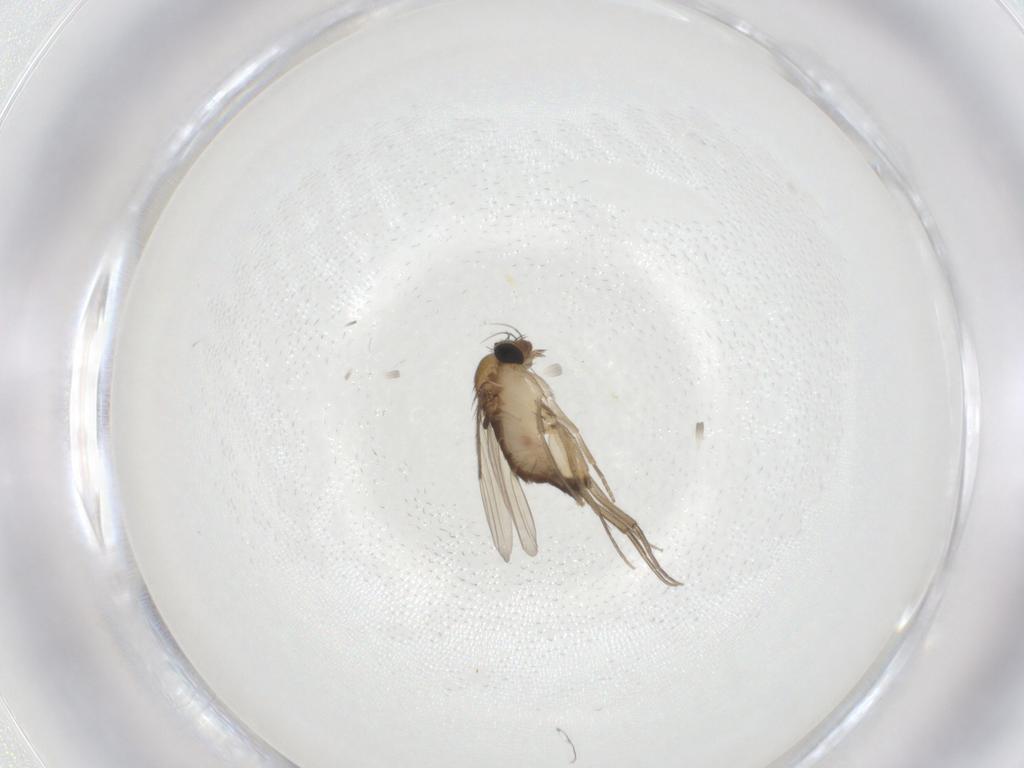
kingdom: Animalia
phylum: Arthropoda
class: Insecta
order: Diptera
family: Phoridae
